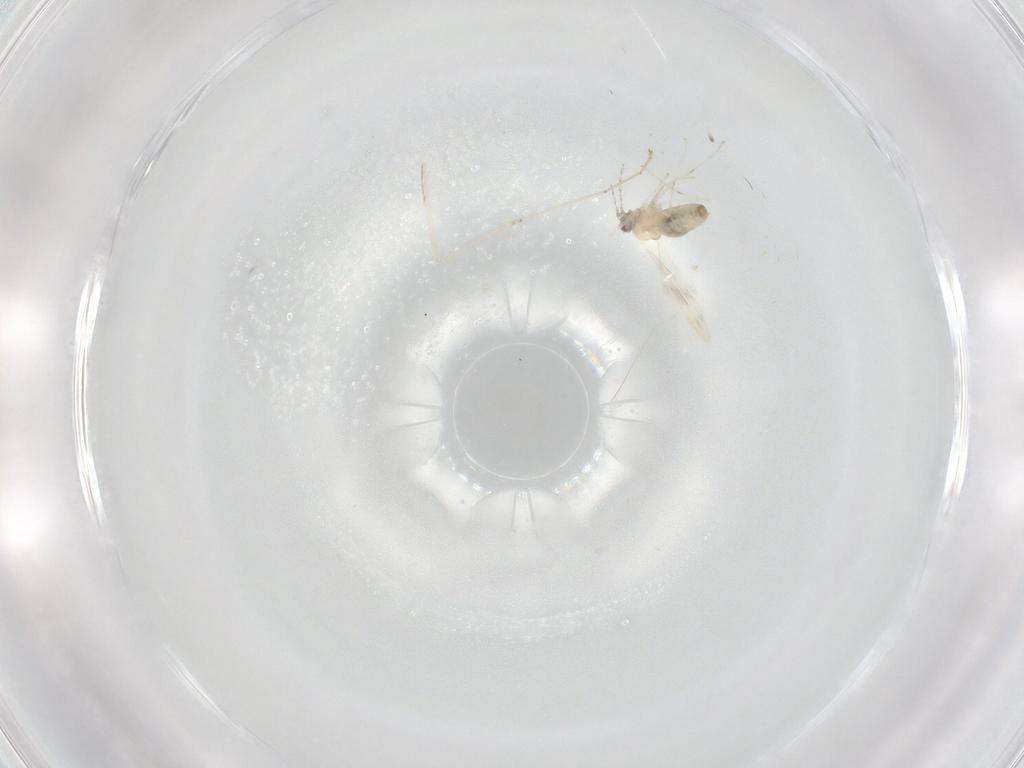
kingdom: Animalia
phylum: Arthropoda
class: Insecta
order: Diptera
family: Cecidomyiidae
